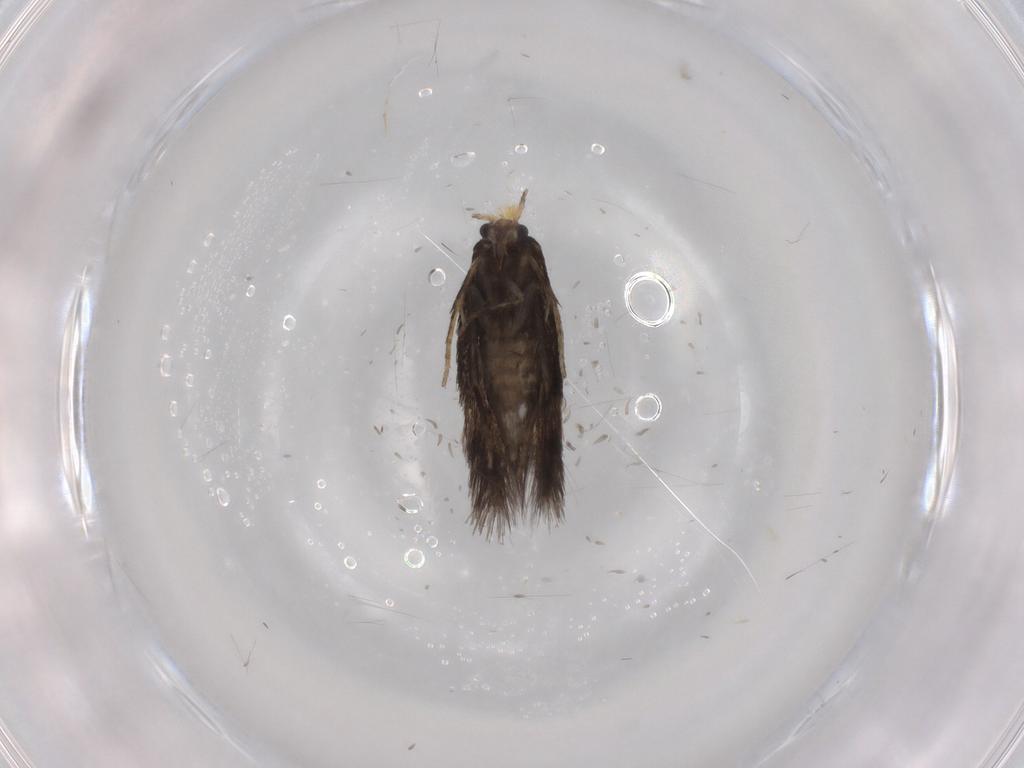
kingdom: Animalia
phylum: Arthropoda
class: Insecta
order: Lepidoptera
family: Nepticulidae
